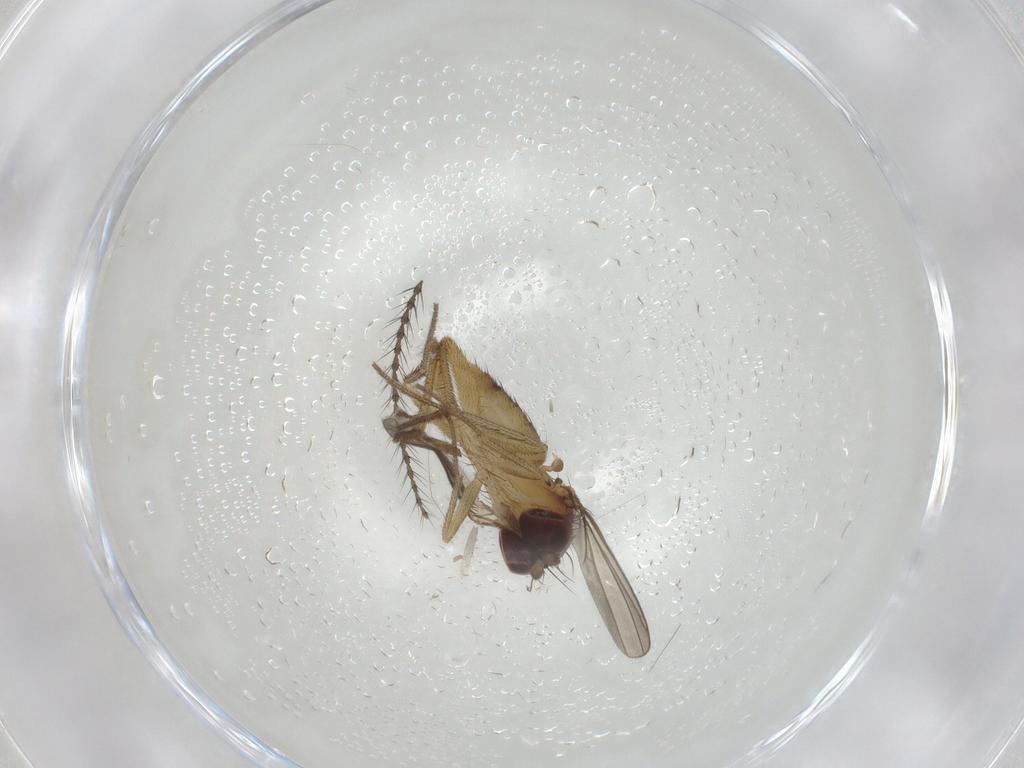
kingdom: Animalia
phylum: Arthropoda
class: Insecta
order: Diptera
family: Dolichopodidae
